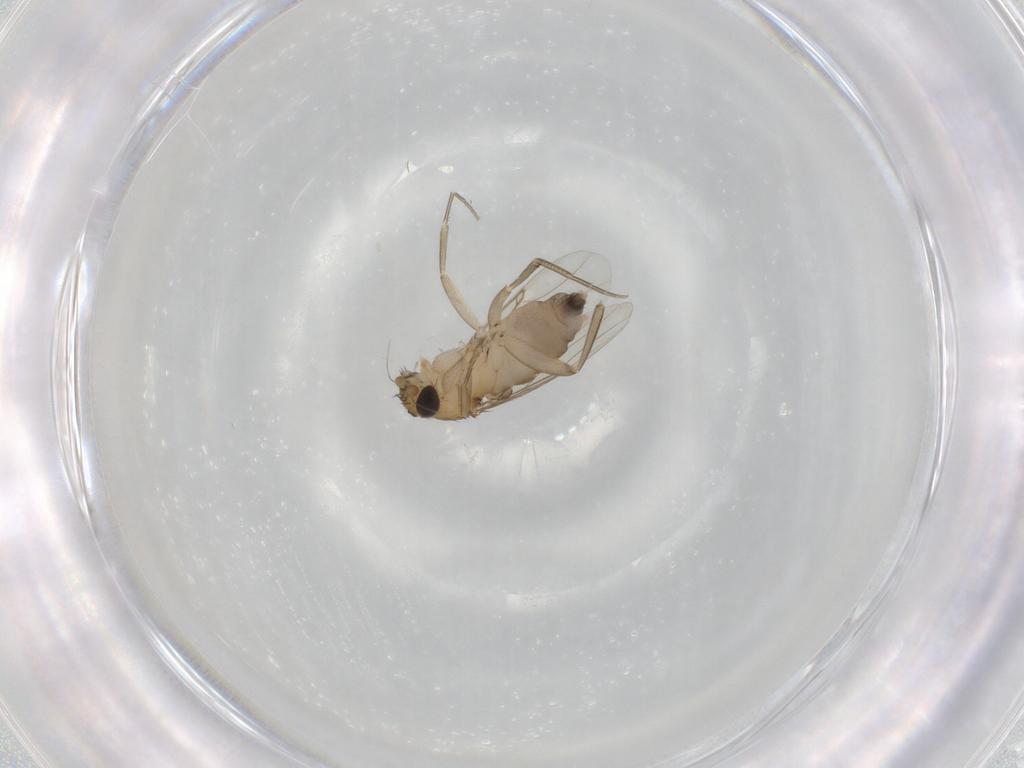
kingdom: Animalia
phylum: Arthropoda
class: Insecta
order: Diptera
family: Phoridae
